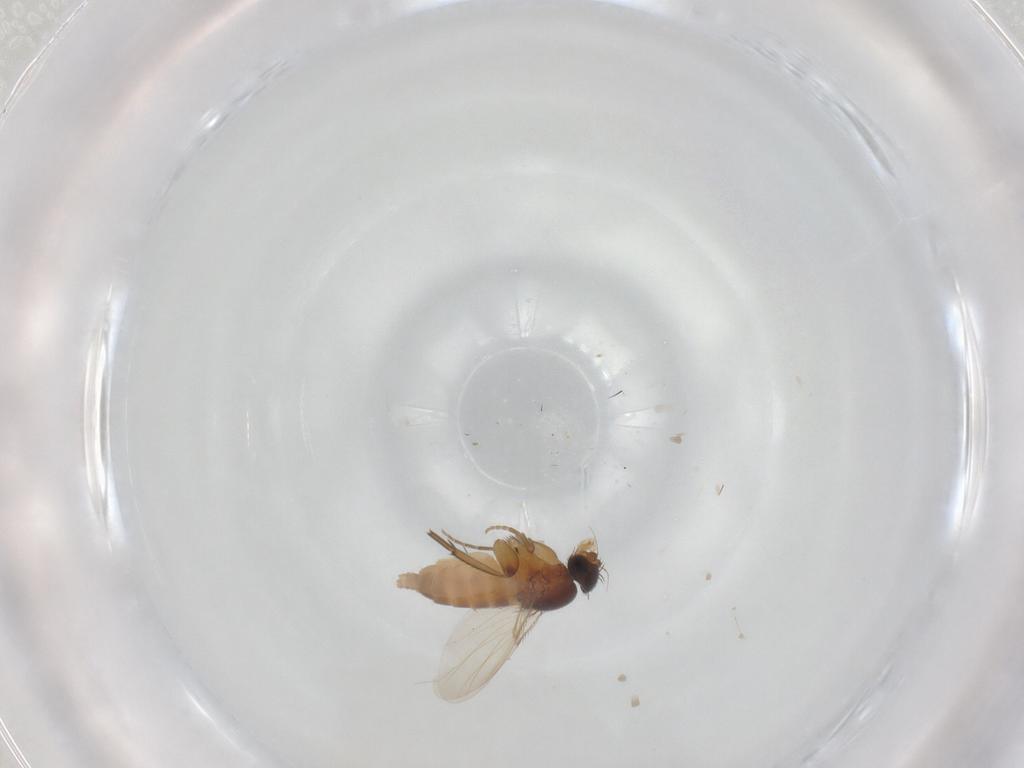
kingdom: Animalia
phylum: Arthropoda
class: Insecta
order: Diptera
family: Phoridae
